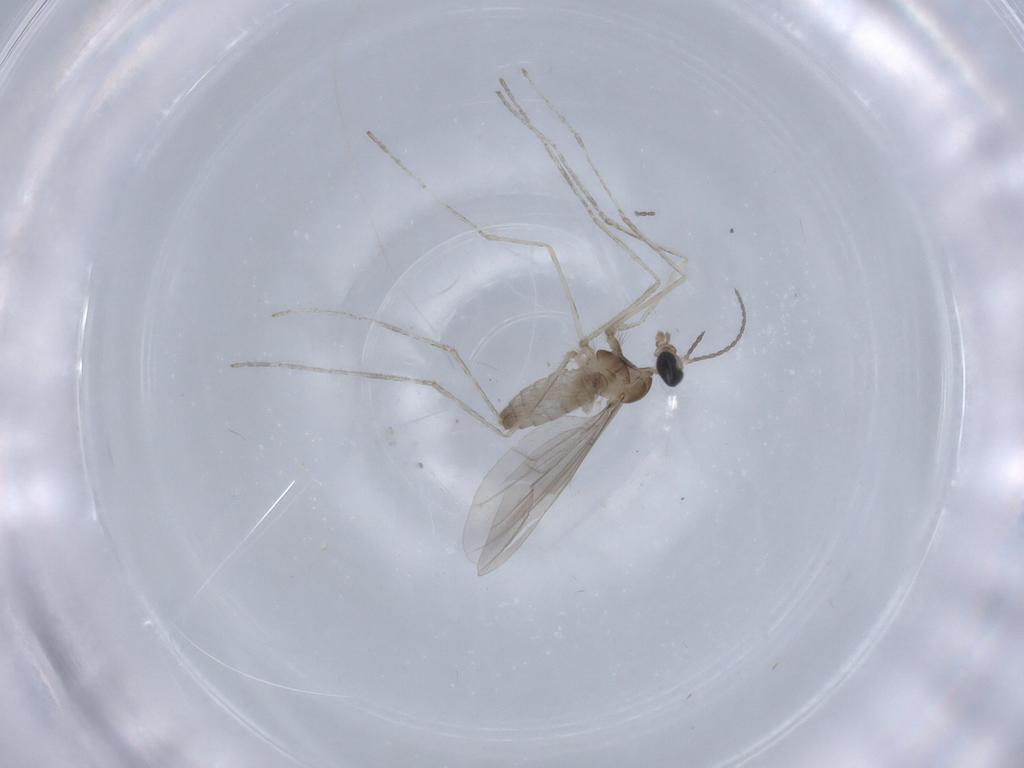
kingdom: Animalia
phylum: Arthropoda
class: Insecta
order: Diptera
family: Cecidomyiidae
